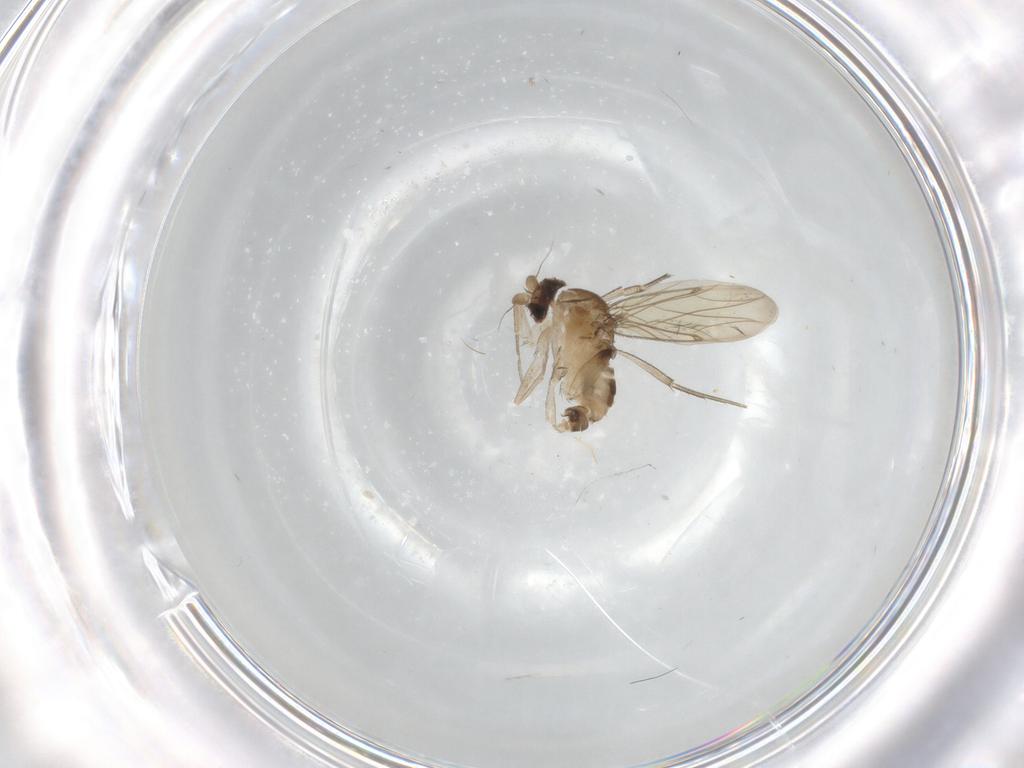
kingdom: Animalia
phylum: Arthropoda
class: Insecta
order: Diptera
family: Phoridae
